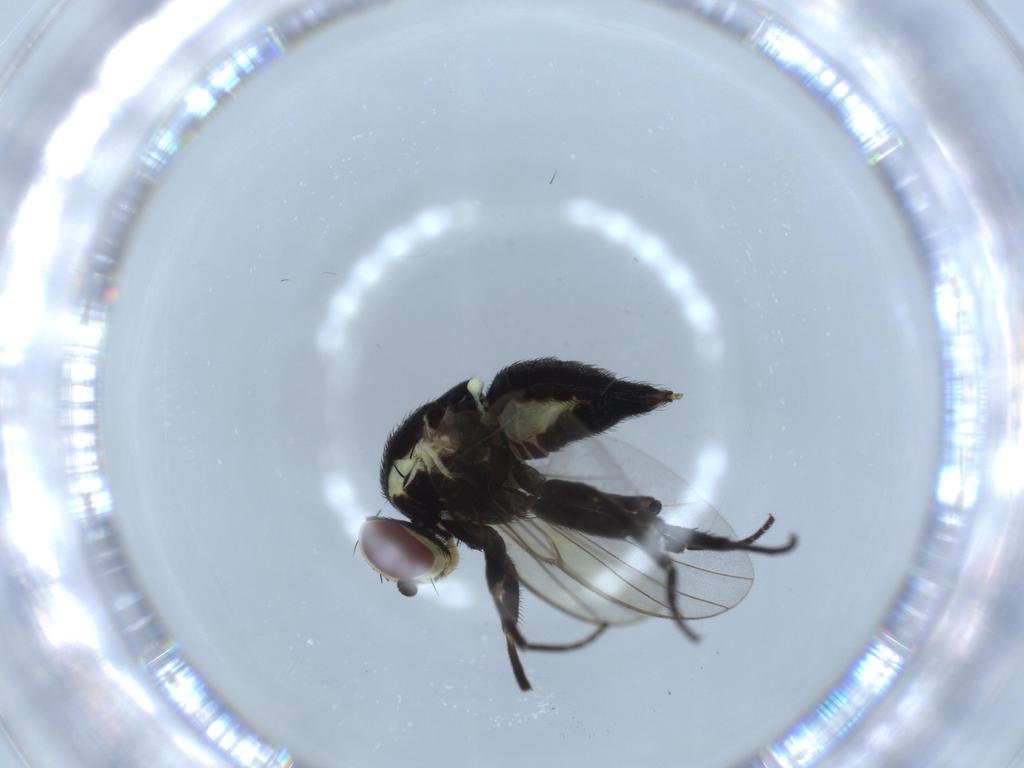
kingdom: Animalia
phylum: Arthropoda
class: Insecta
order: Diptera
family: Agromyzidae
